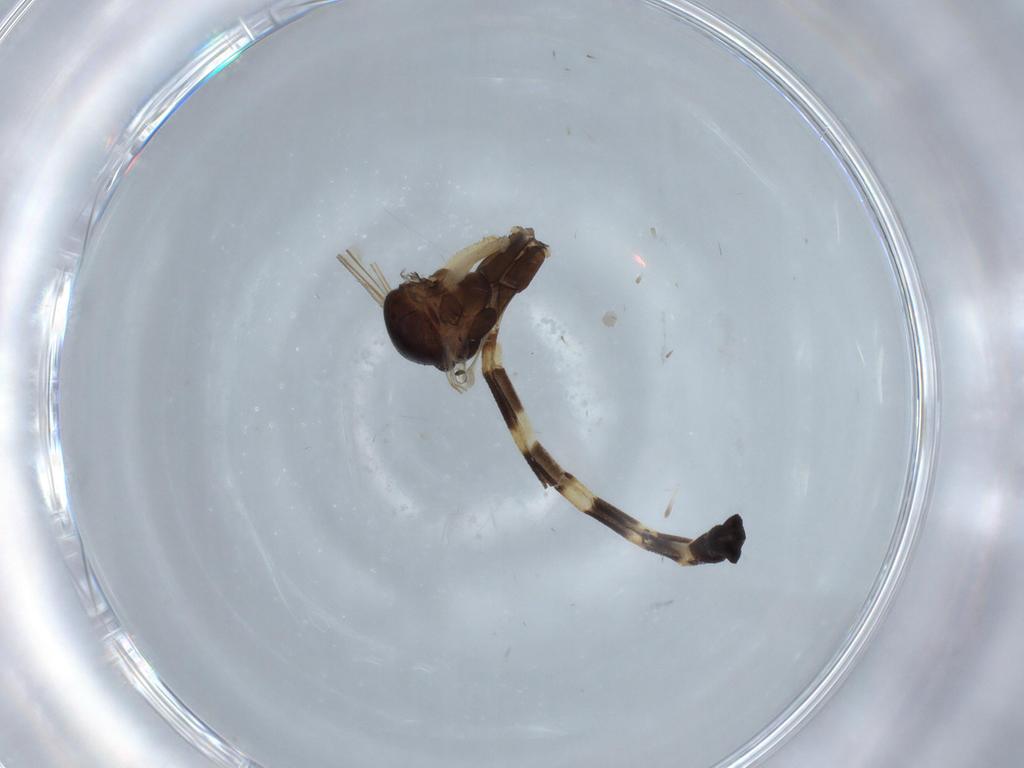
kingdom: Animalia
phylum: Arthropoda
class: Insecta
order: Diptera
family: Keroplatidae
